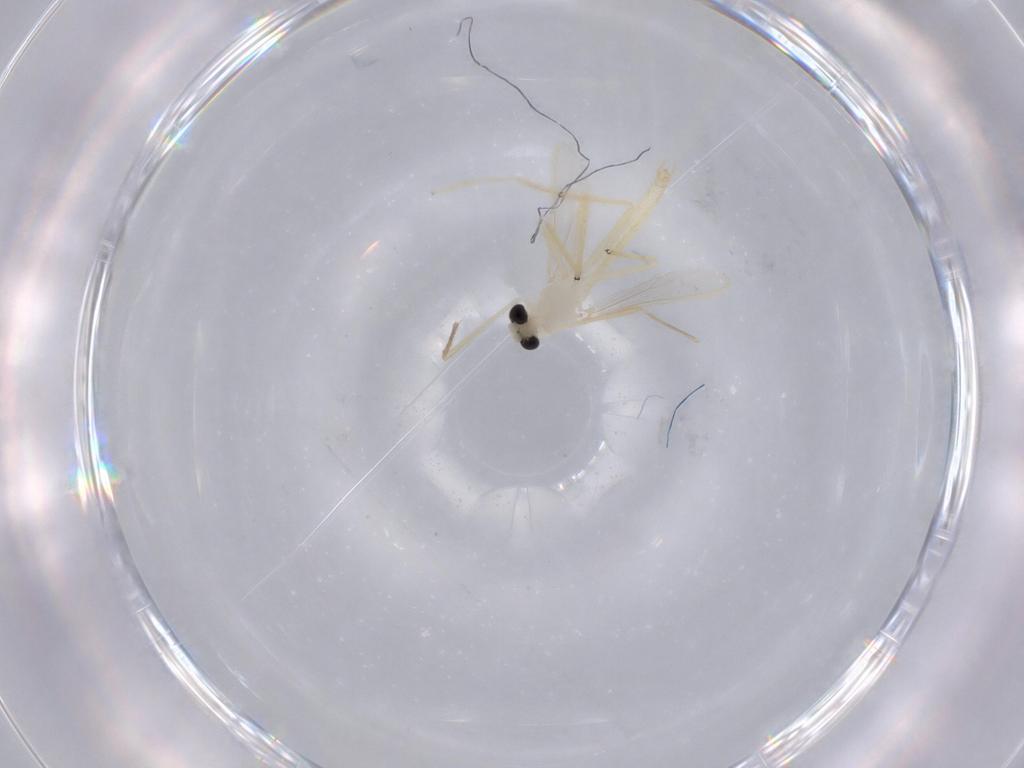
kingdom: Animalia
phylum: Arthropoda
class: Insecta
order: Diptera
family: Chironomidae
